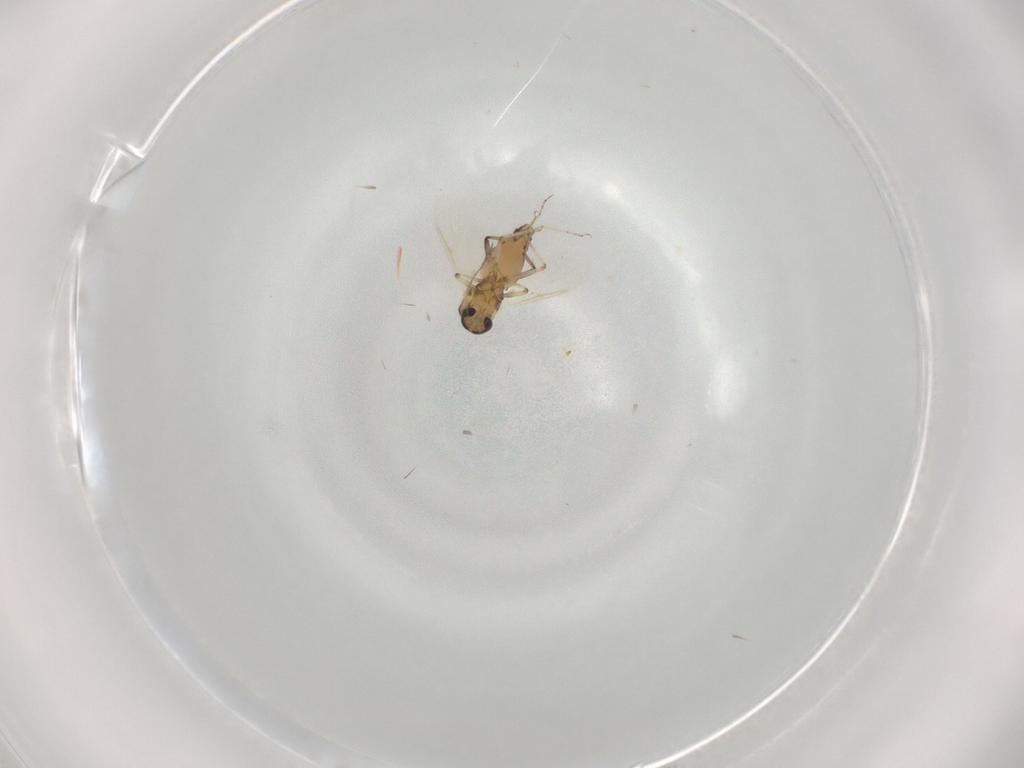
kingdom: Animalia
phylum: Arthropoda
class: Insecta
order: Diptera
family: Ceratopogonidae
